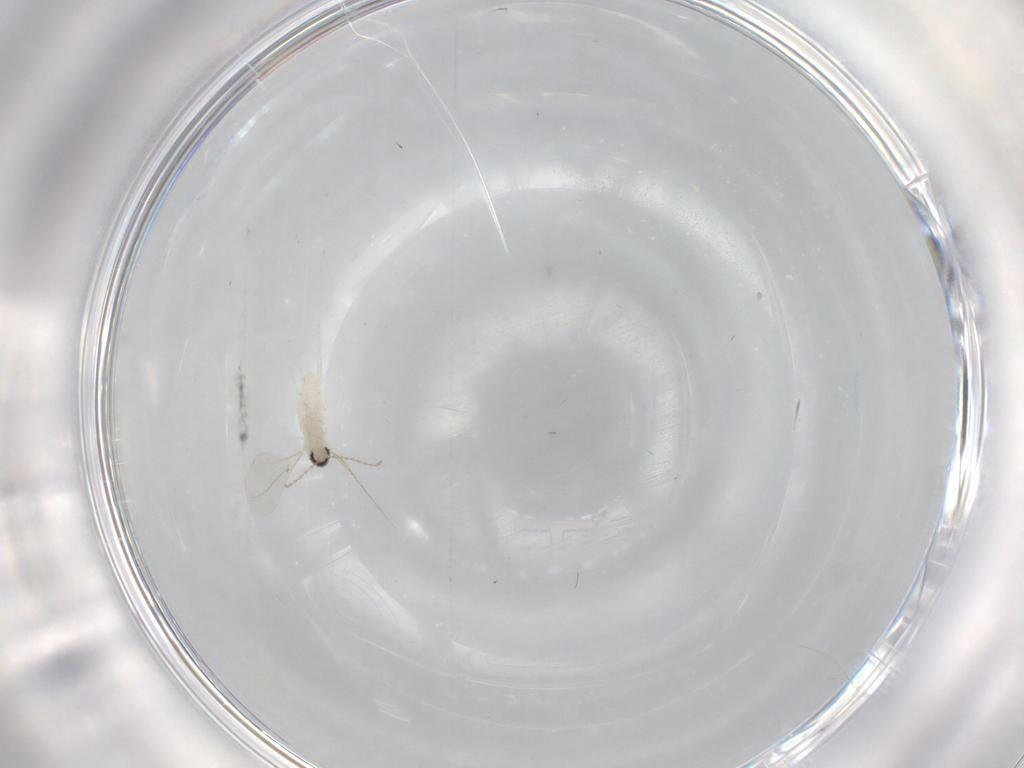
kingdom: Animalia
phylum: Arthropoda
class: Insecta
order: Diptera
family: Cecidomyiidae
